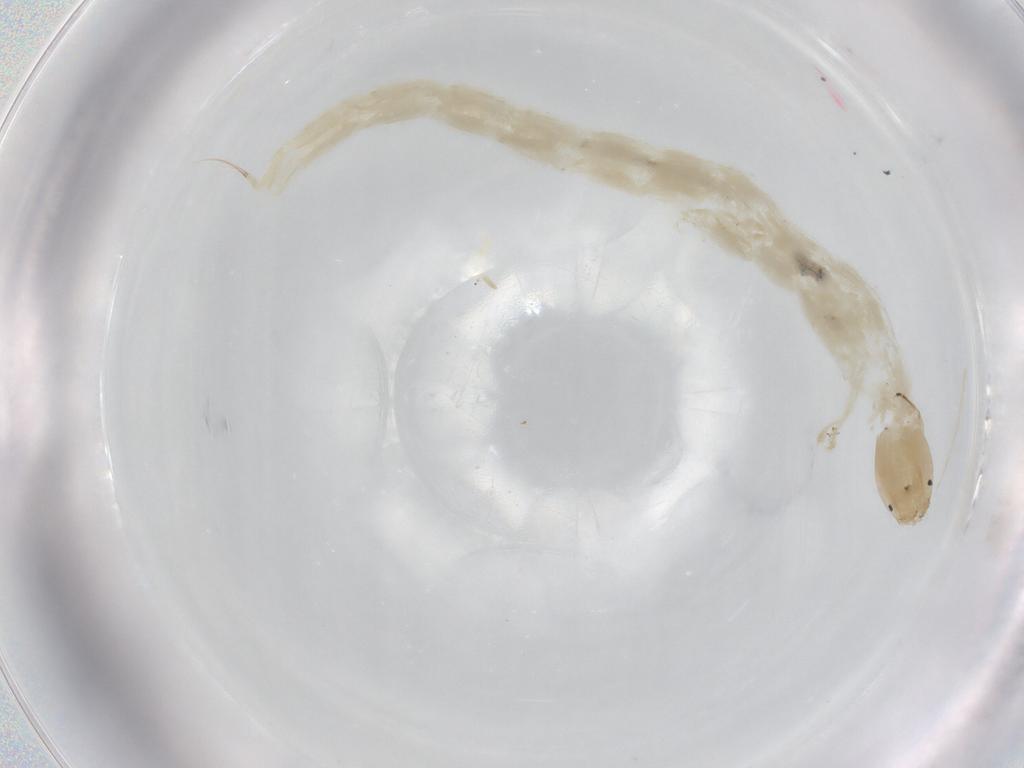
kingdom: Animalia
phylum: Arthropoda
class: Insecta
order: Diptera
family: Chironomidae
